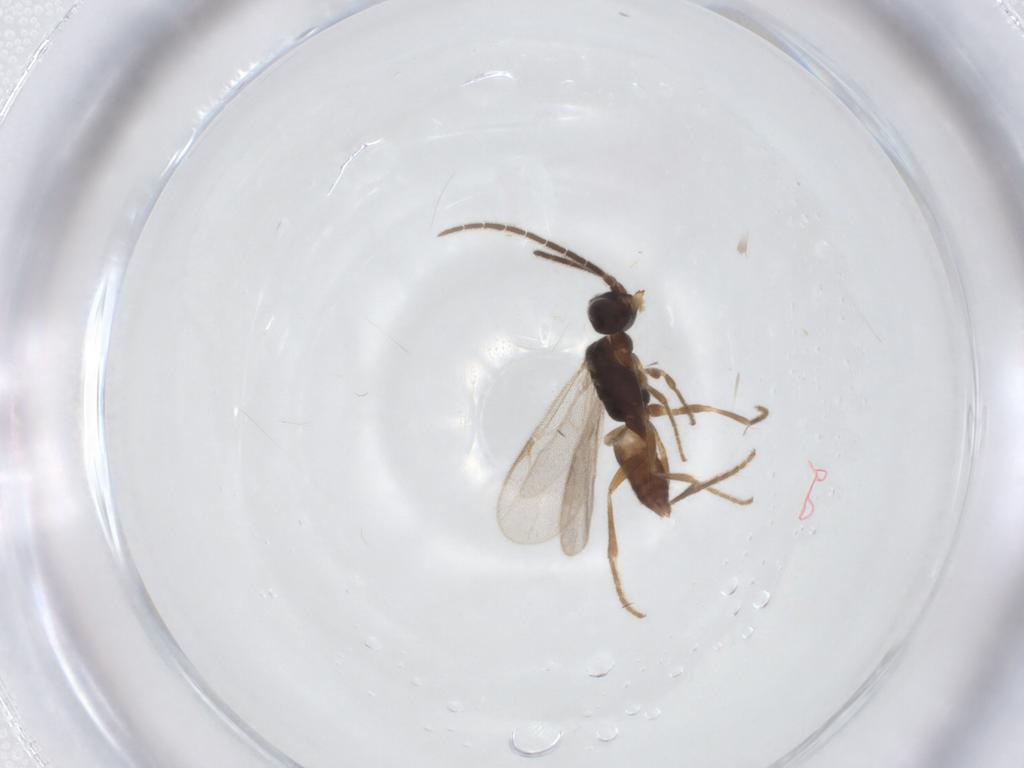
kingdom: Animalia
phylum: Arthropoda
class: Insecta
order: Hymenoptera
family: Dryinidae
